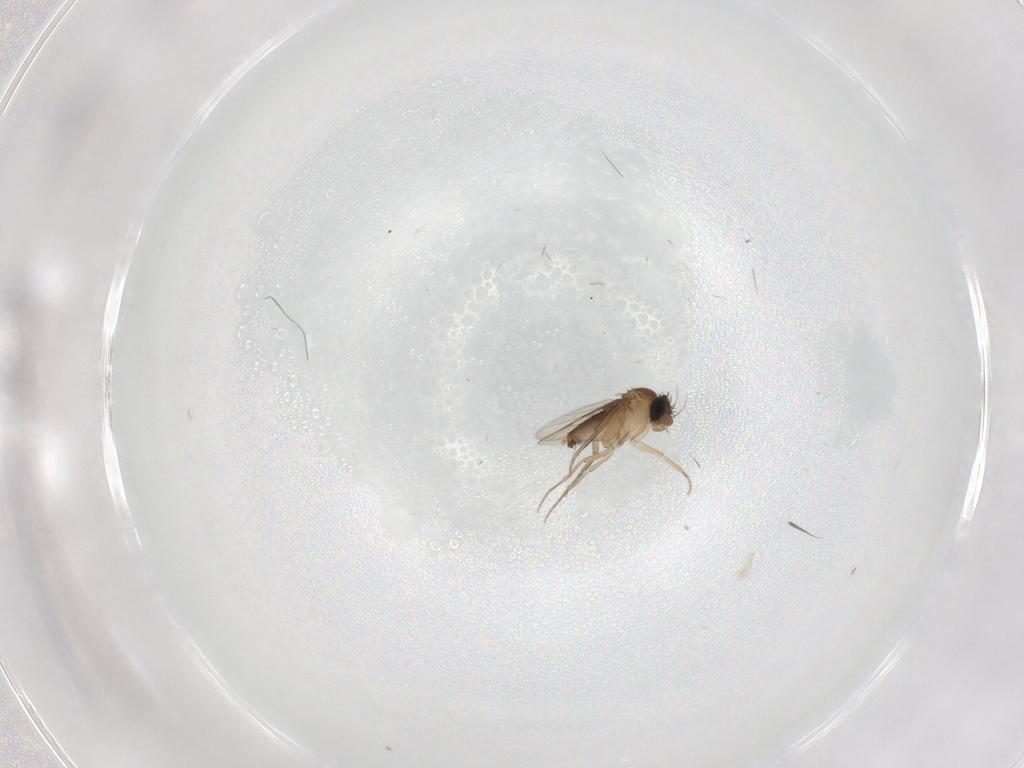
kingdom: Animalia
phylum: Arthropoda
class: Insecta
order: Diptera
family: Phoridae
